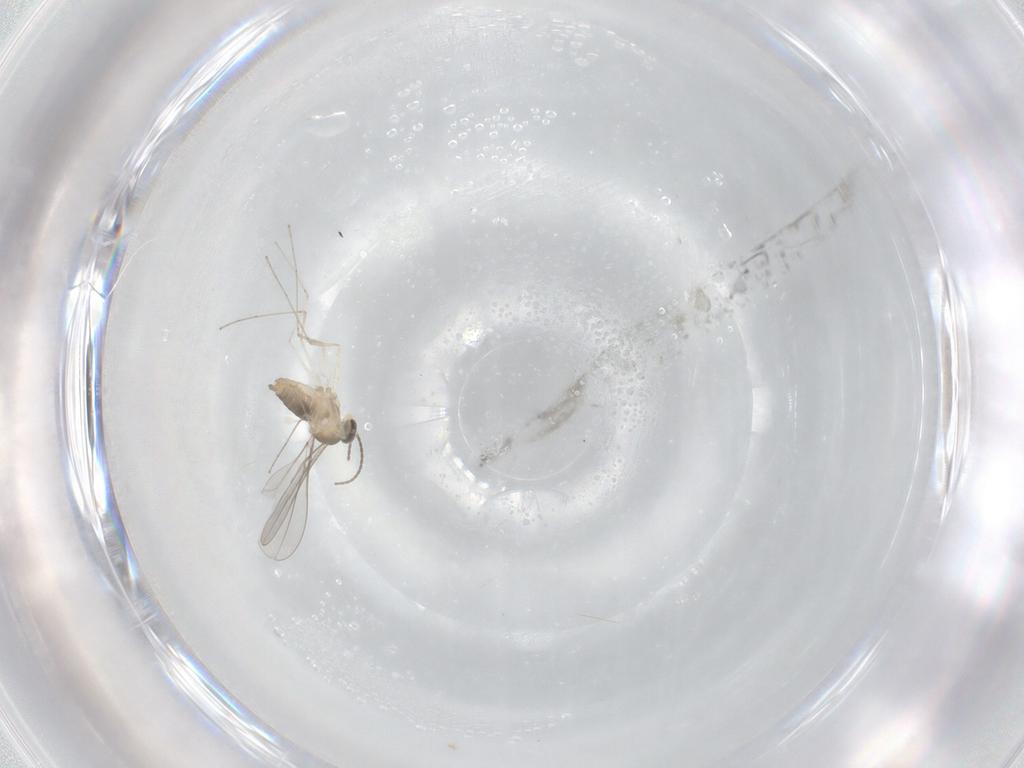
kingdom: Animalia
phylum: Arthropoda
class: Insecta
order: Diptera
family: Cecidomyiidae
